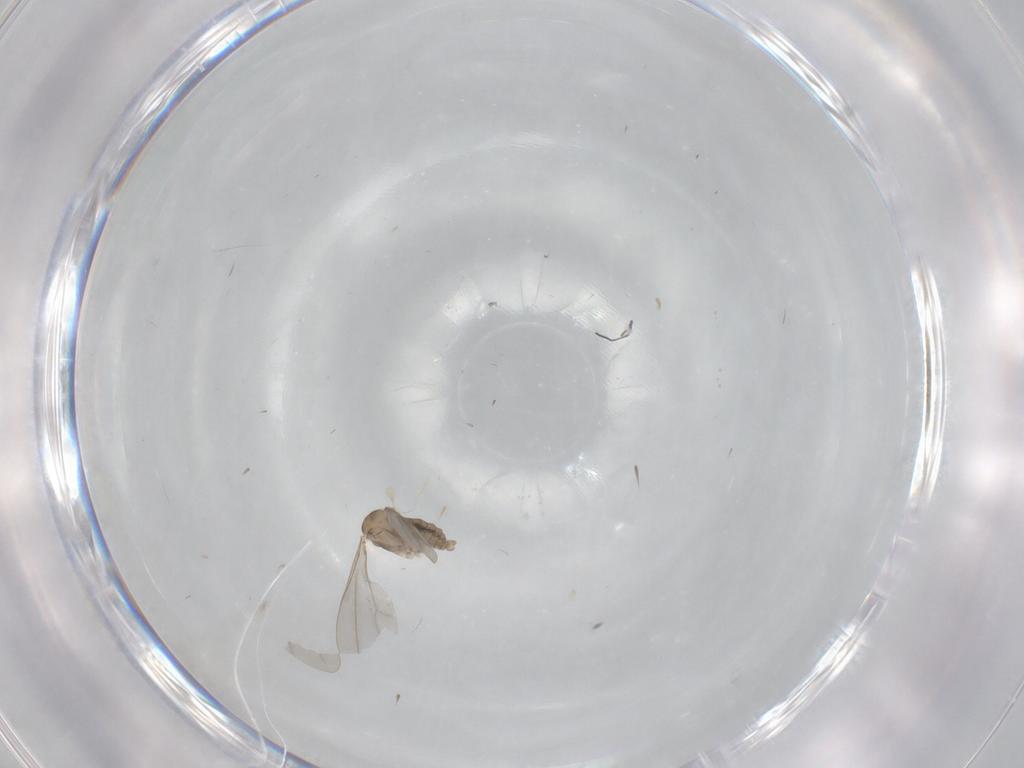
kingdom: Animalia
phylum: Arthropoda
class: Insecta
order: Diptera
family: Cecidomyiidae
